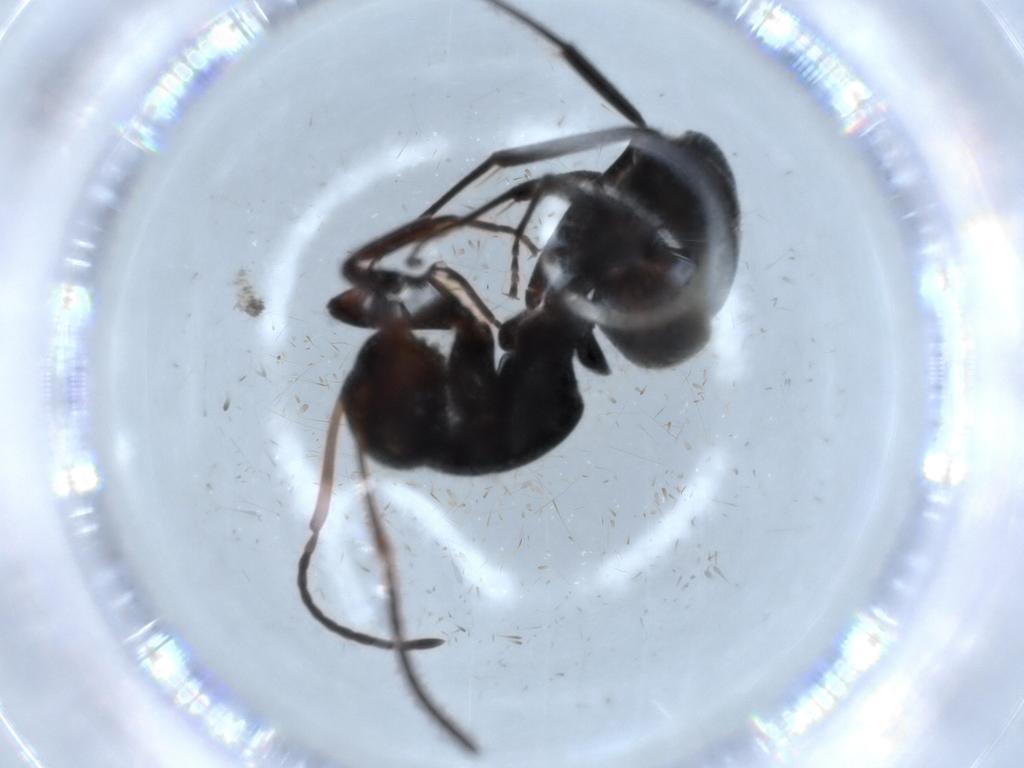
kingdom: Animalia
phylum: Arthropoda
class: Insecta
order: Hymenoptera
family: Formicidae
